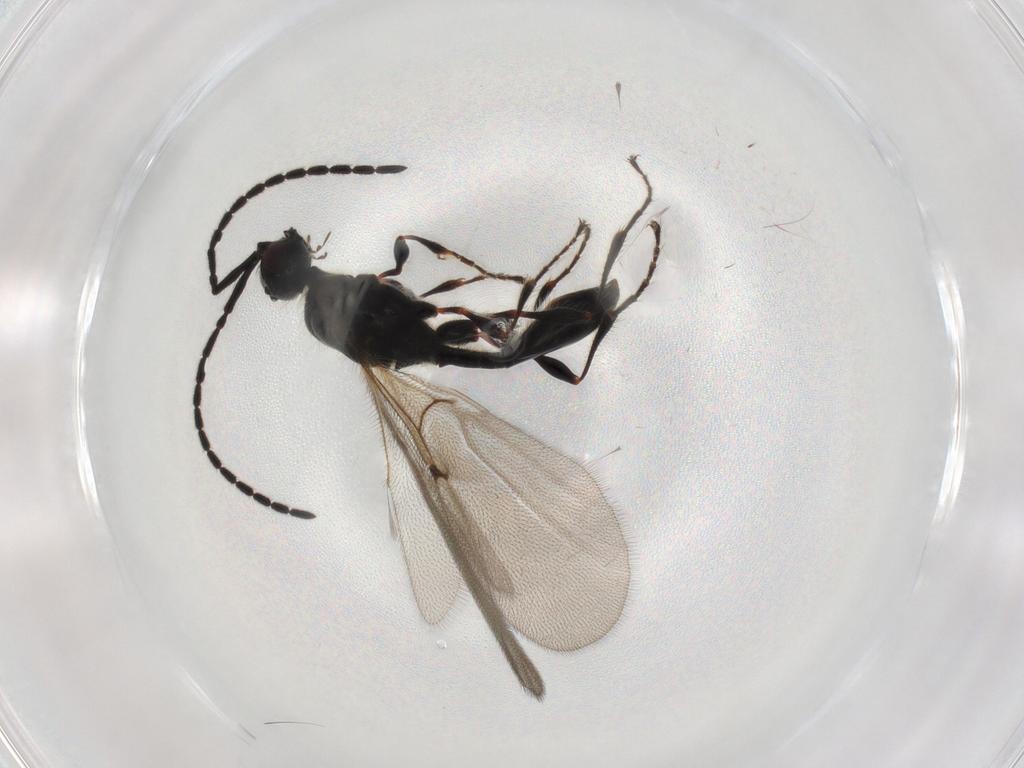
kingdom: Animalia
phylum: Arthropoda
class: Insecta
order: Hymenoptera
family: Diapriidae
